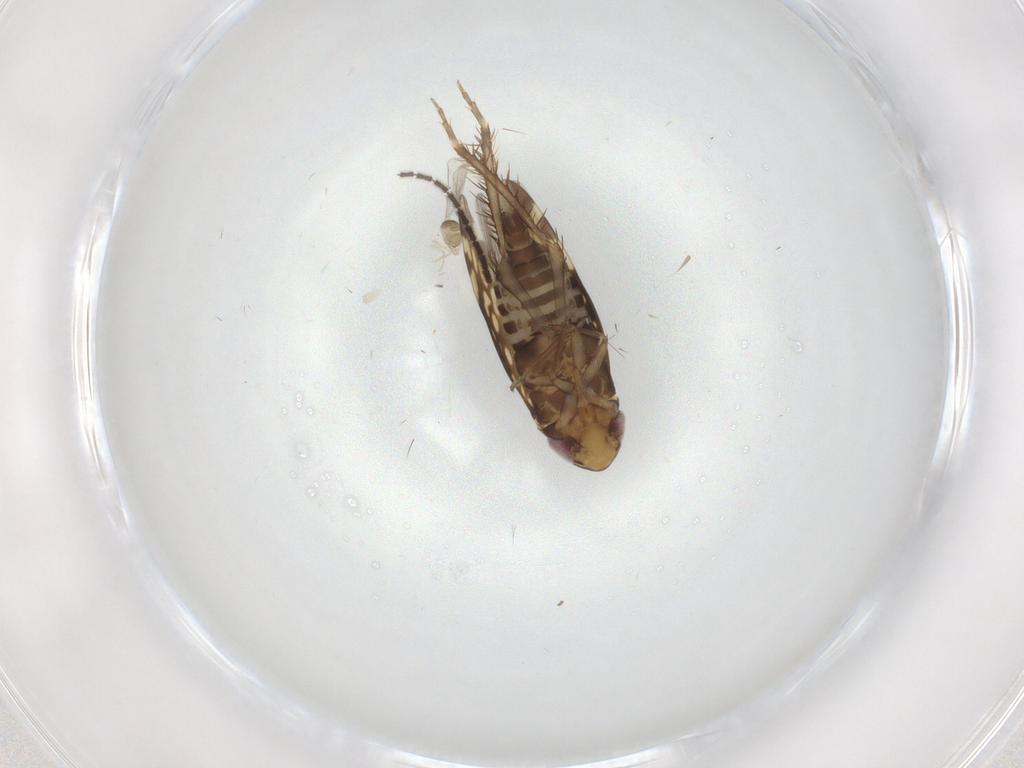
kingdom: Animalia
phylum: Arthropoda
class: Insecta
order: Hemiptera
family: Cicadellidae
